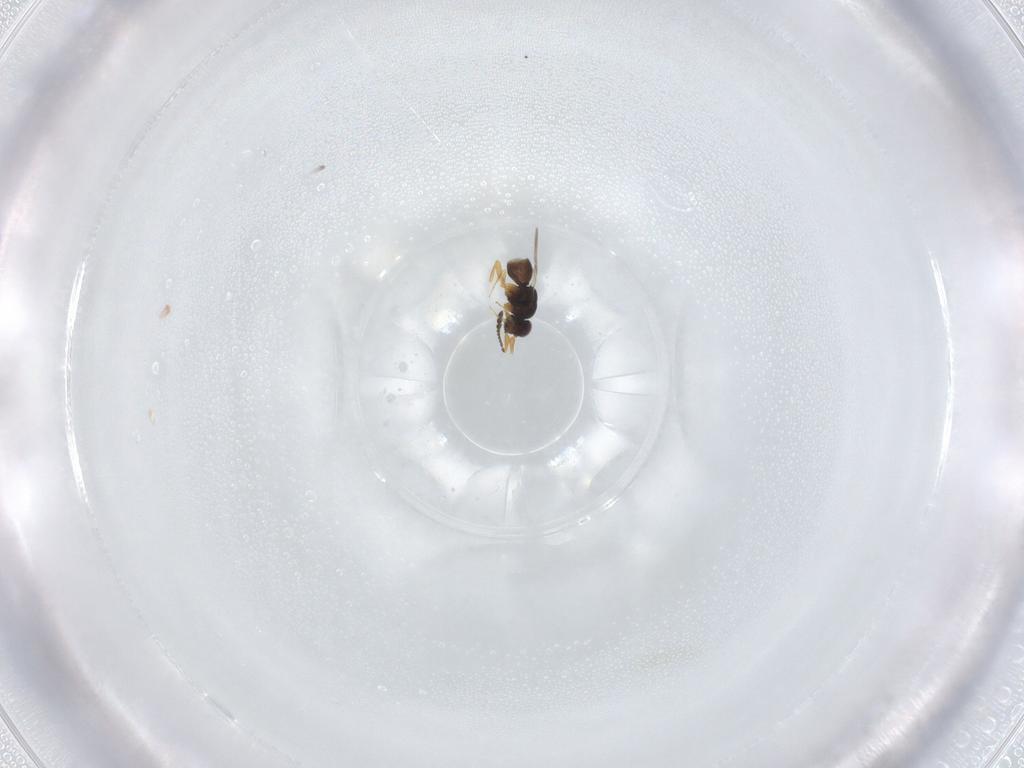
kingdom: Animalia
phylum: Arthropoda
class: Insecta
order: Hymenoptera
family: Ceraphronidae
